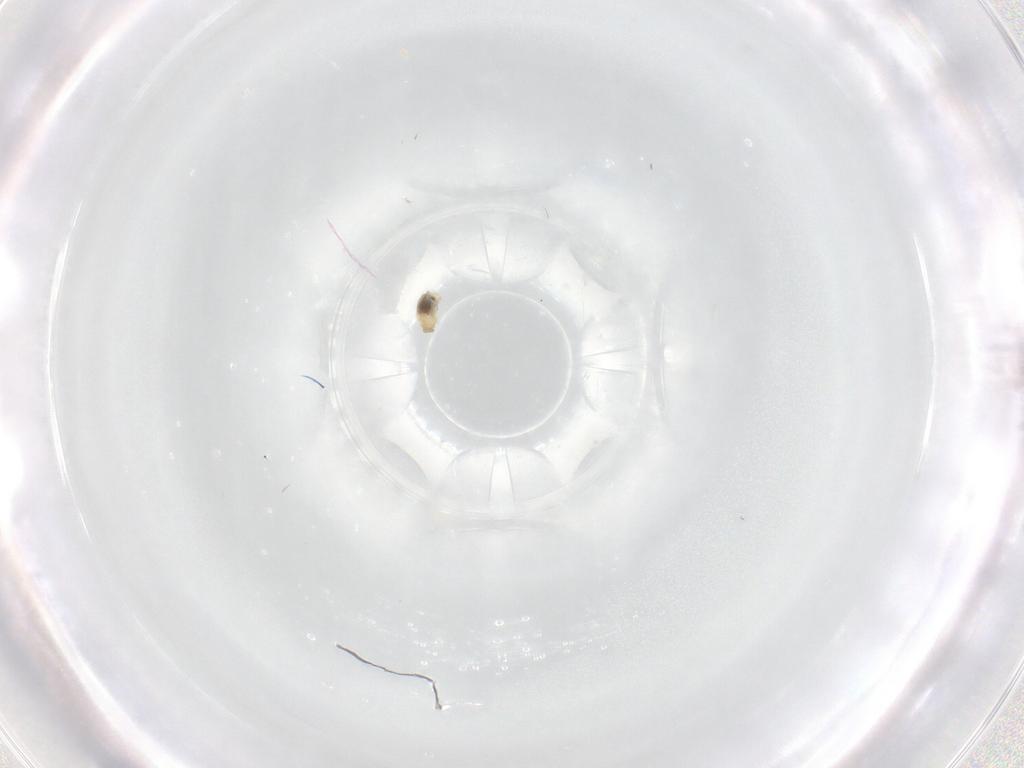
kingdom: Animalia
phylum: Arthropoda
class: Insecta
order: Diptera
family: Cecidomyiidae
